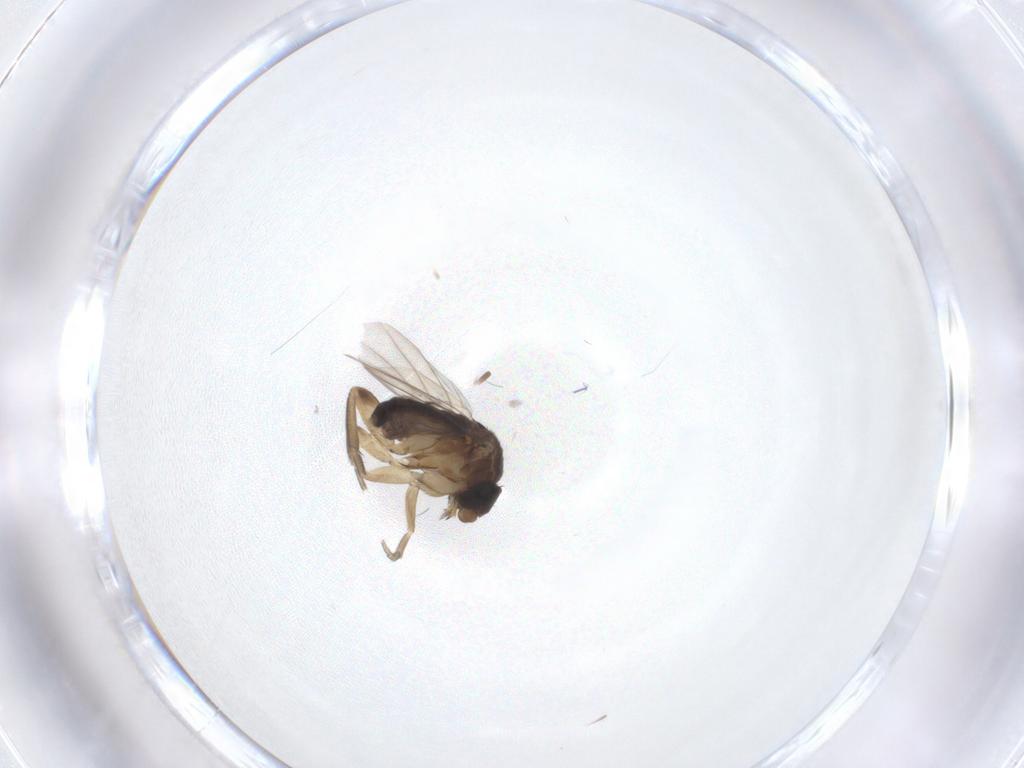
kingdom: Animalia
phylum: Arthropoda
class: Insecta
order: Diptera
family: Phoridae
